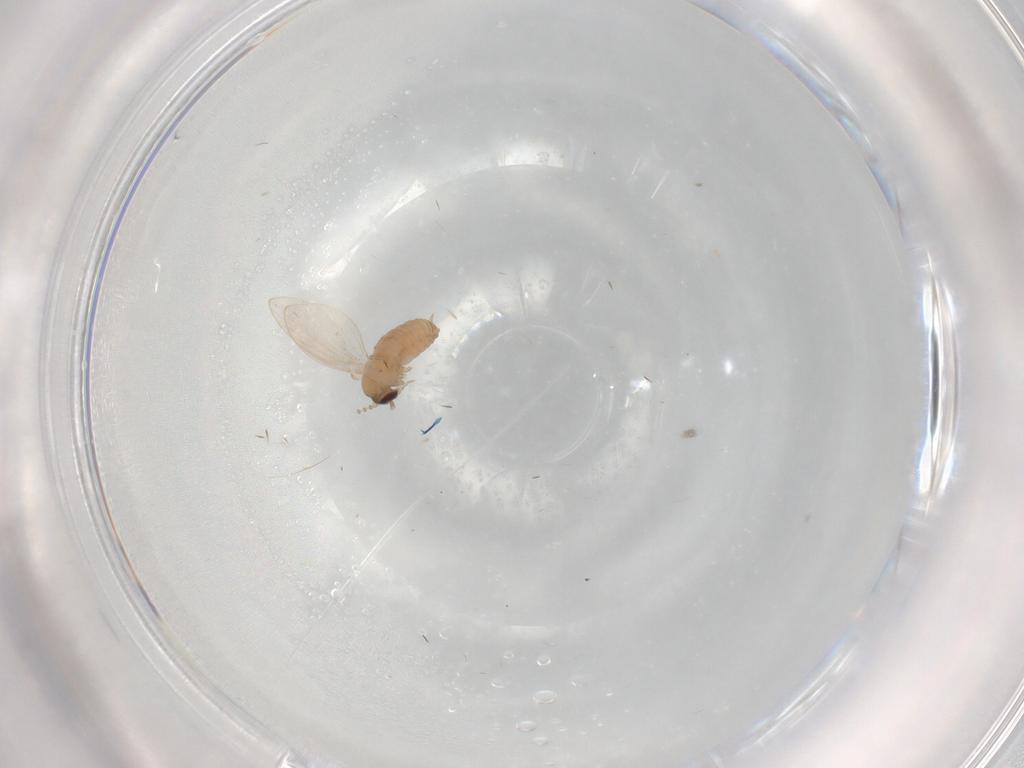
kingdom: Animalia
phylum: Arthropoda
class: Insecta
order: Diptera
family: Psychodidae
